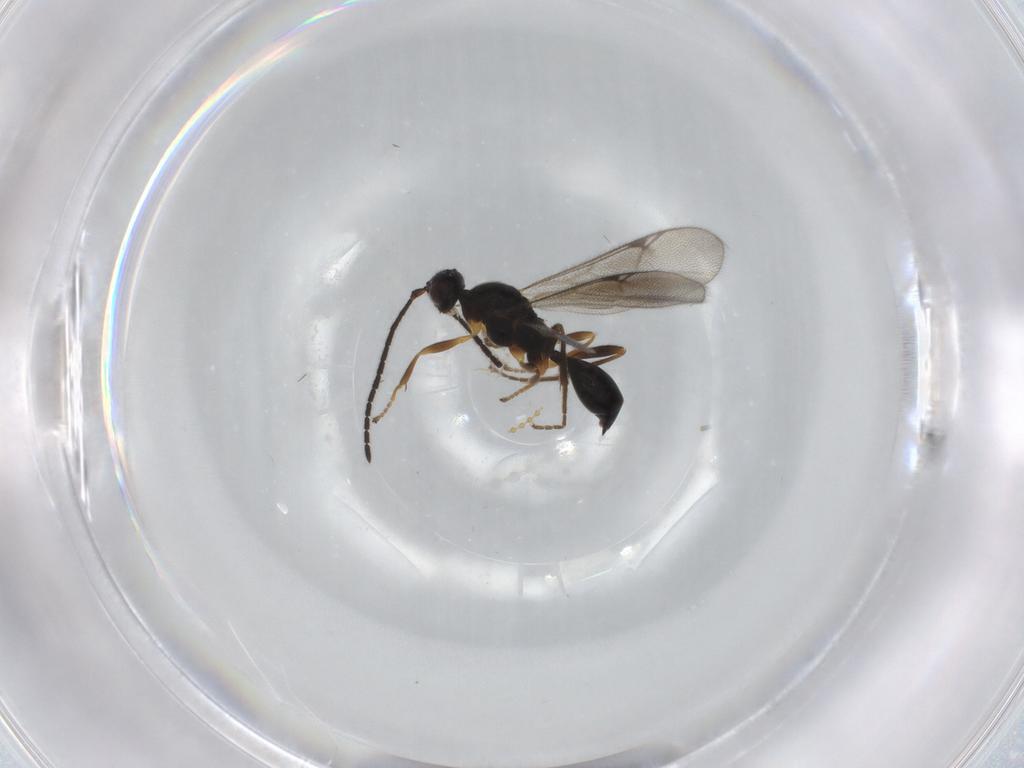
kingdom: Animalia
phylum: Arthropoda
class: Insecta
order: Hymenoptera
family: Proctotrupidae
